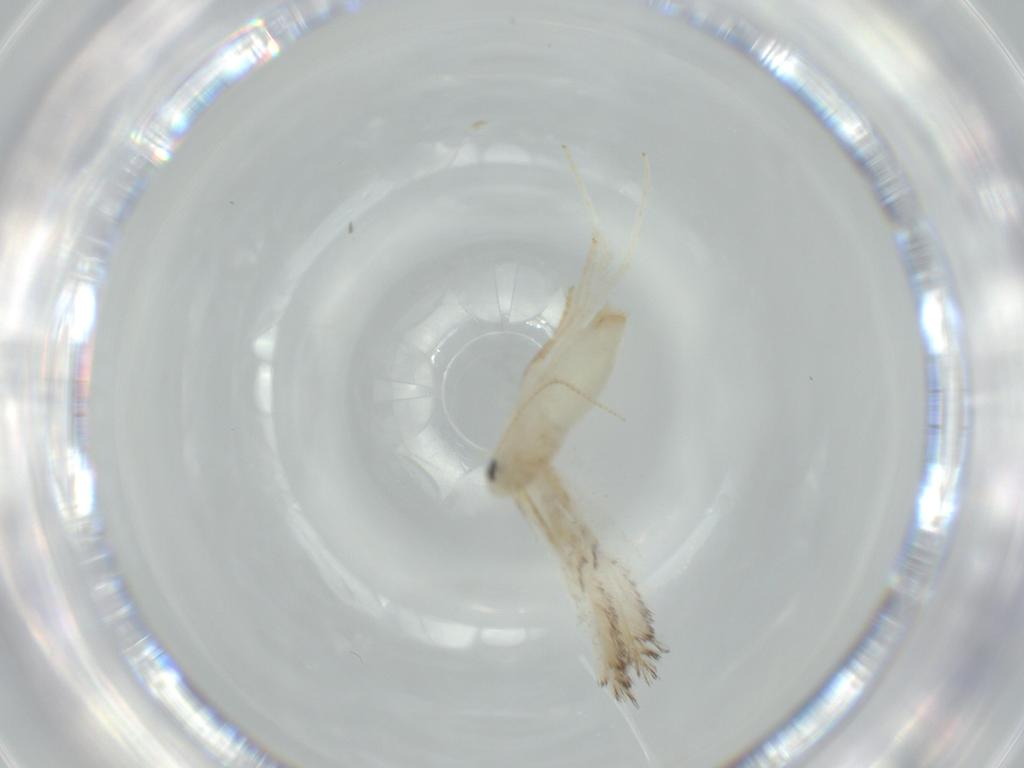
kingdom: Animalia
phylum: Arthropoda
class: Insecta
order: Lepidoptera
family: Gracillariidae
